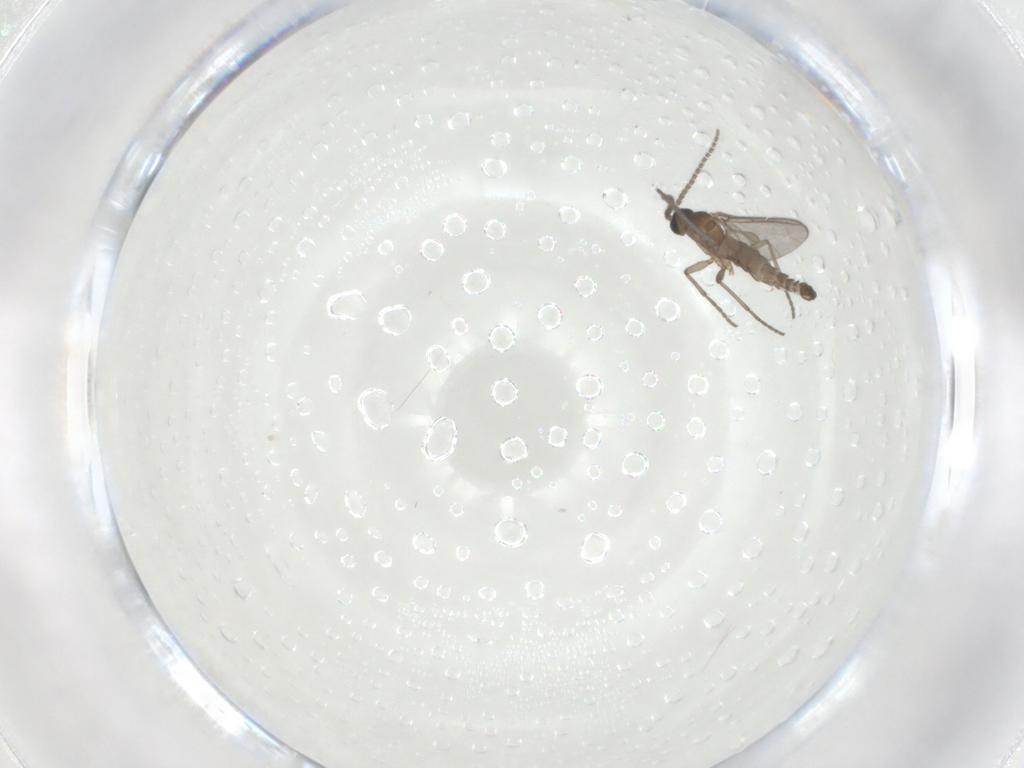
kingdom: Animalia
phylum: Arthropoda
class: Insecta
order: Diptera
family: Sciaridae
